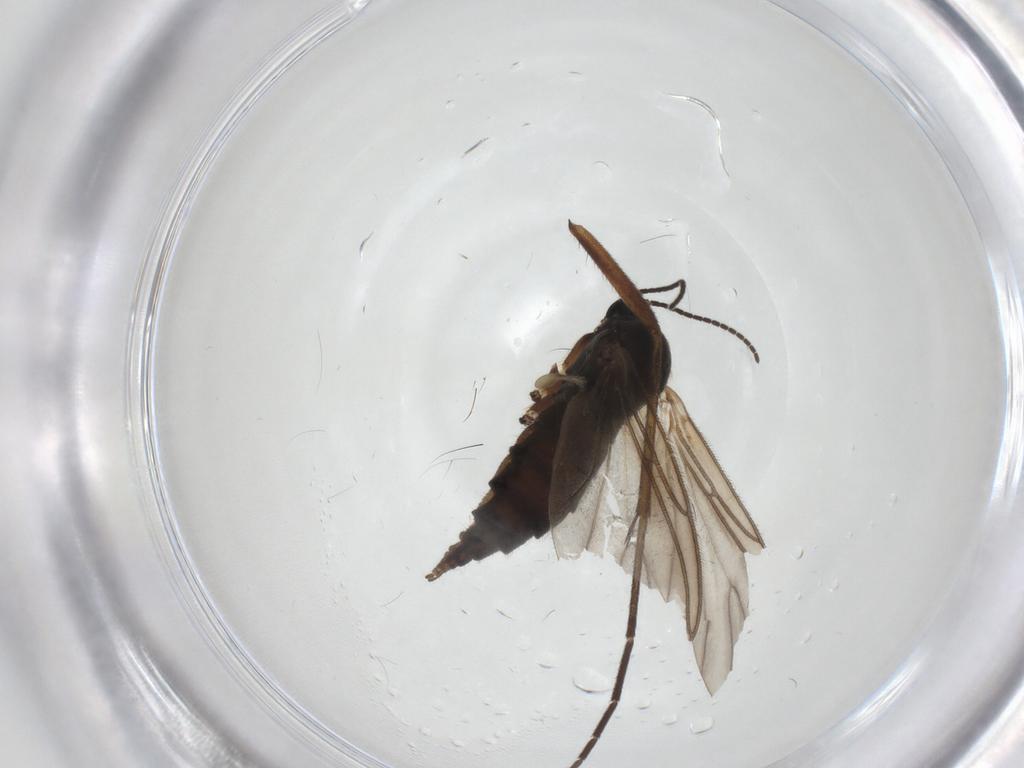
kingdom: Animalia
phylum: Arthropoda
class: Insecta
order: Diptera
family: Sciaridae
